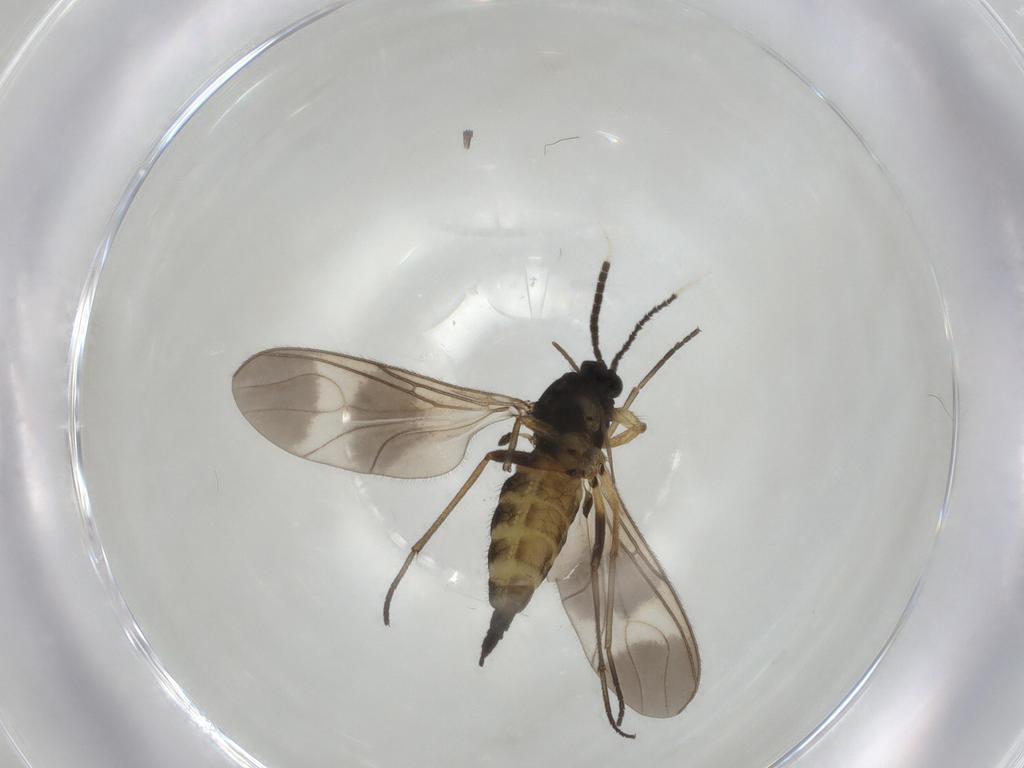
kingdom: Animalia
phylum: Arthropoda
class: Insecta
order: Diptera
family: Sciaridae
